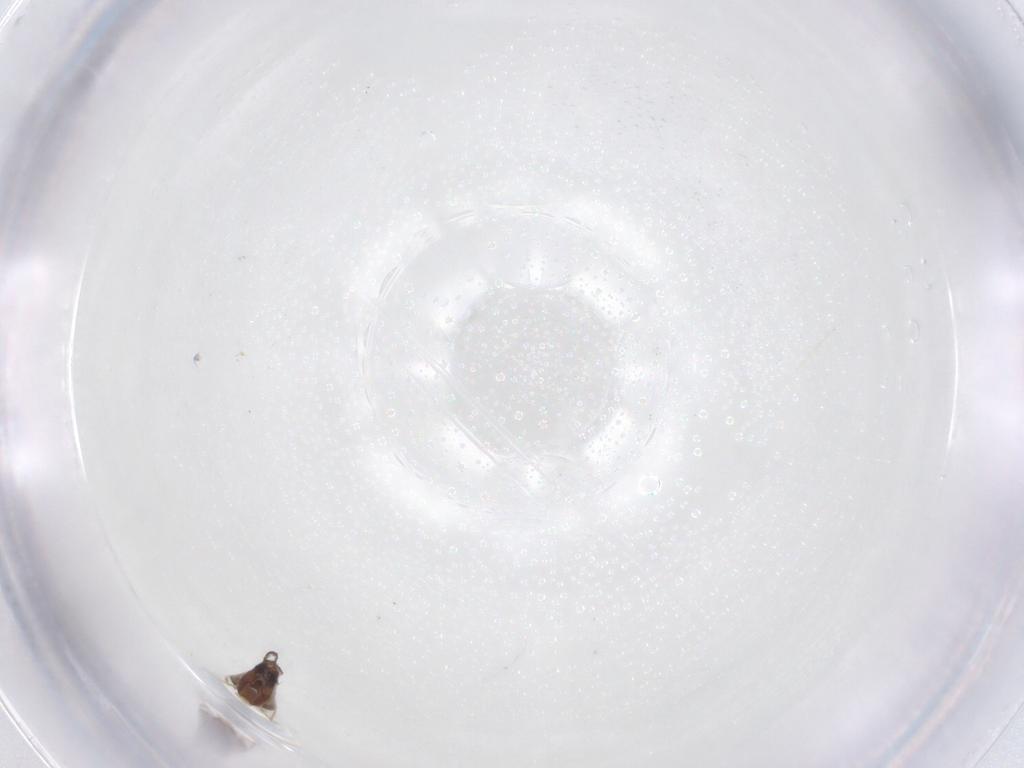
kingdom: Animalia
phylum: Arthropoda
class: Insecta
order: Diptera
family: Ceratopogonidae
